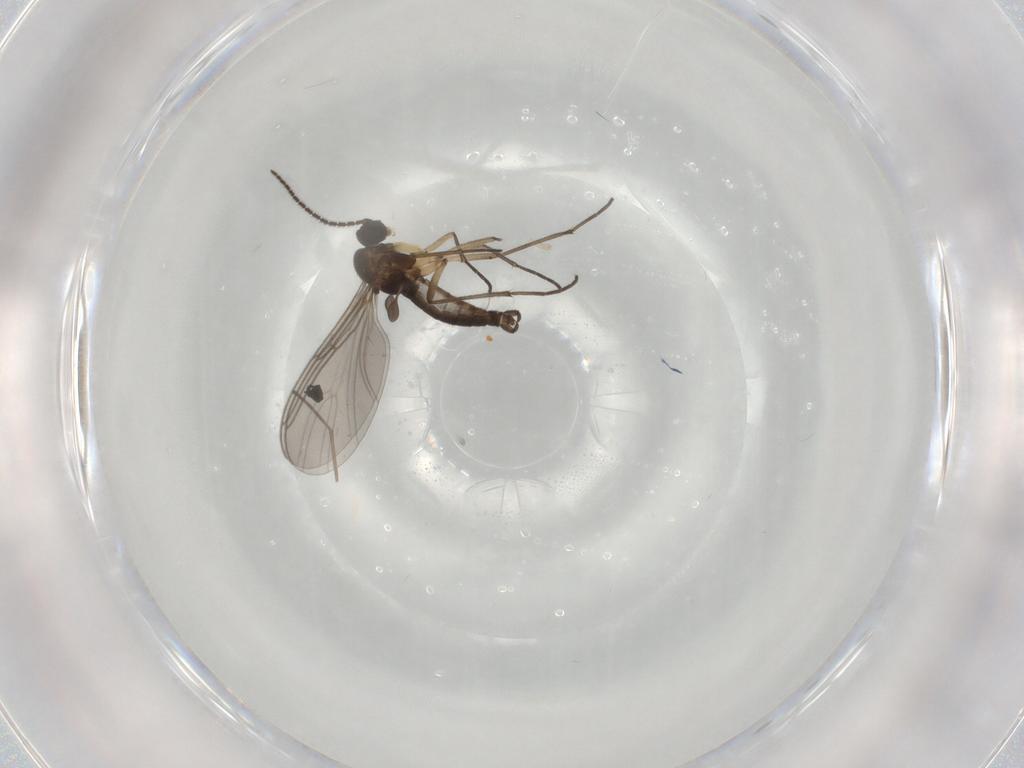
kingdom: Animalia
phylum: Arthropoda
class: Insecta
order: Diptera
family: Sciaridae
